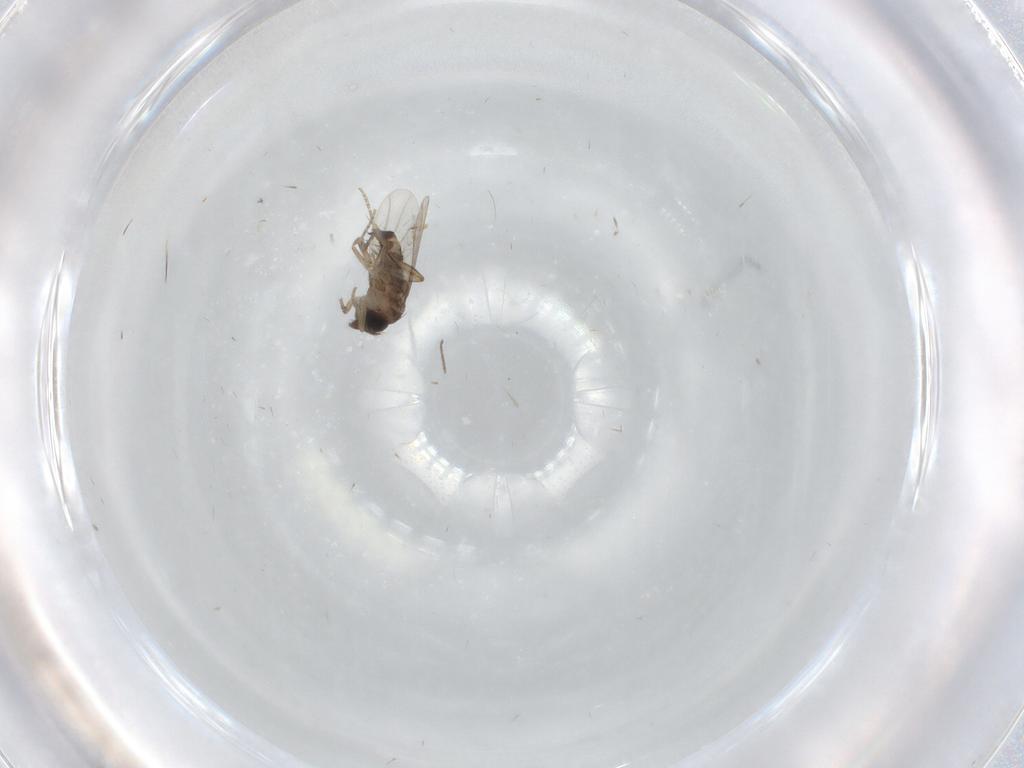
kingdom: Animalia
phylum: Arthropoda
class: Insecta
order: Diptera
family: Phoridae
